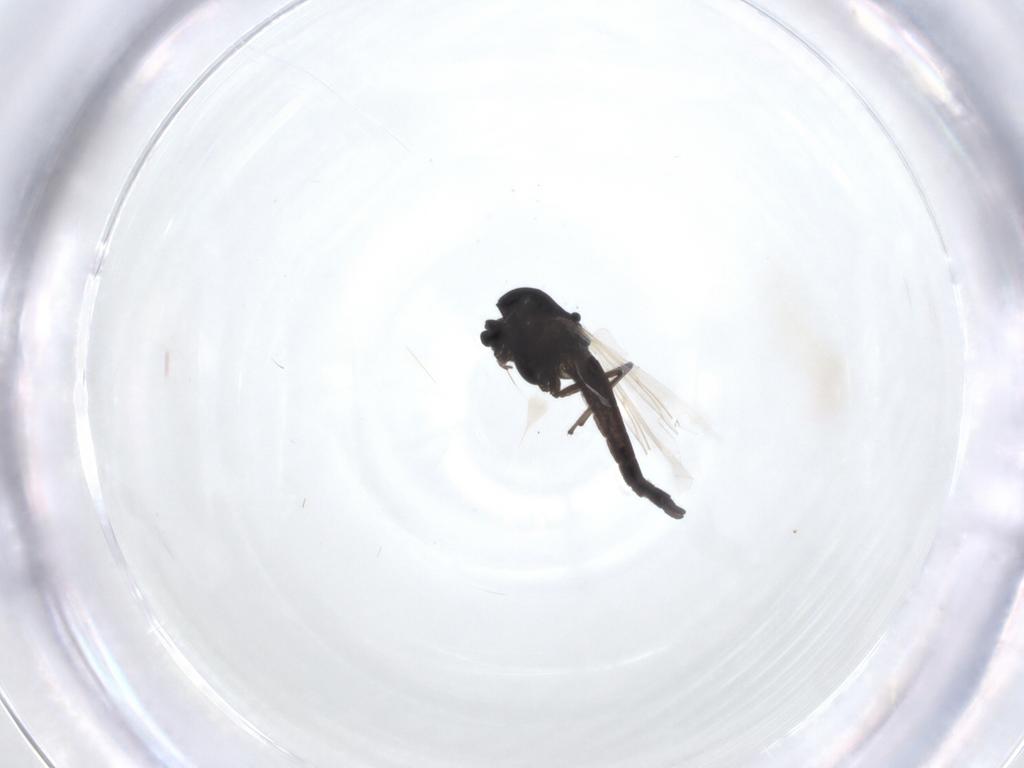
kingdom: Animalia
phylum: Arthropoda
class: Insecta
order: Diptera
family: Chironomidae
